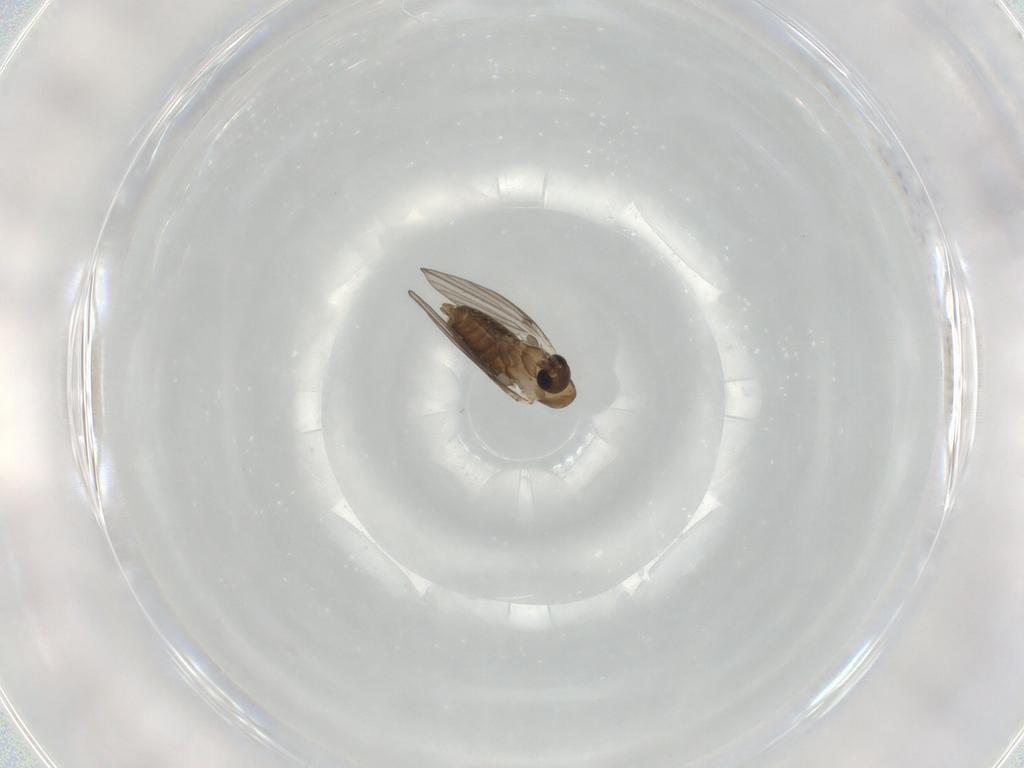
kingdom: Animalia
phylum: Arthropoda
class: Insecta
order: Diptera
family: Psychodidae
